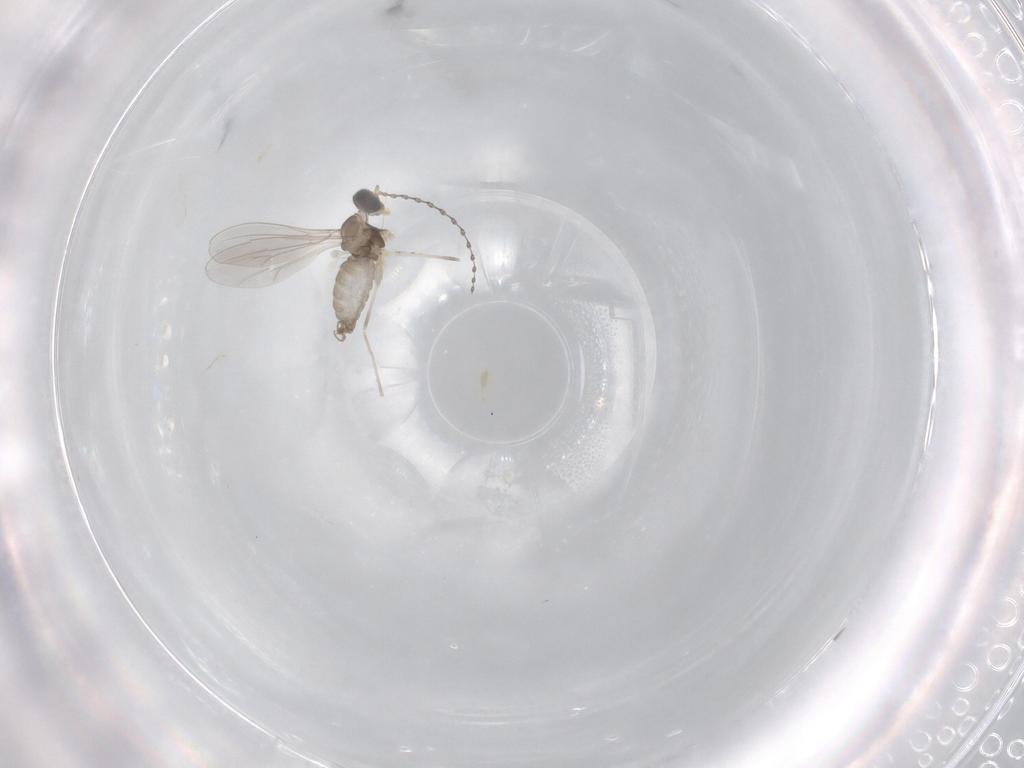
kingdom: Animalia
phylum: Arthropoda
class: Insecta
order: Diptera
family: Cecidomyiidae
